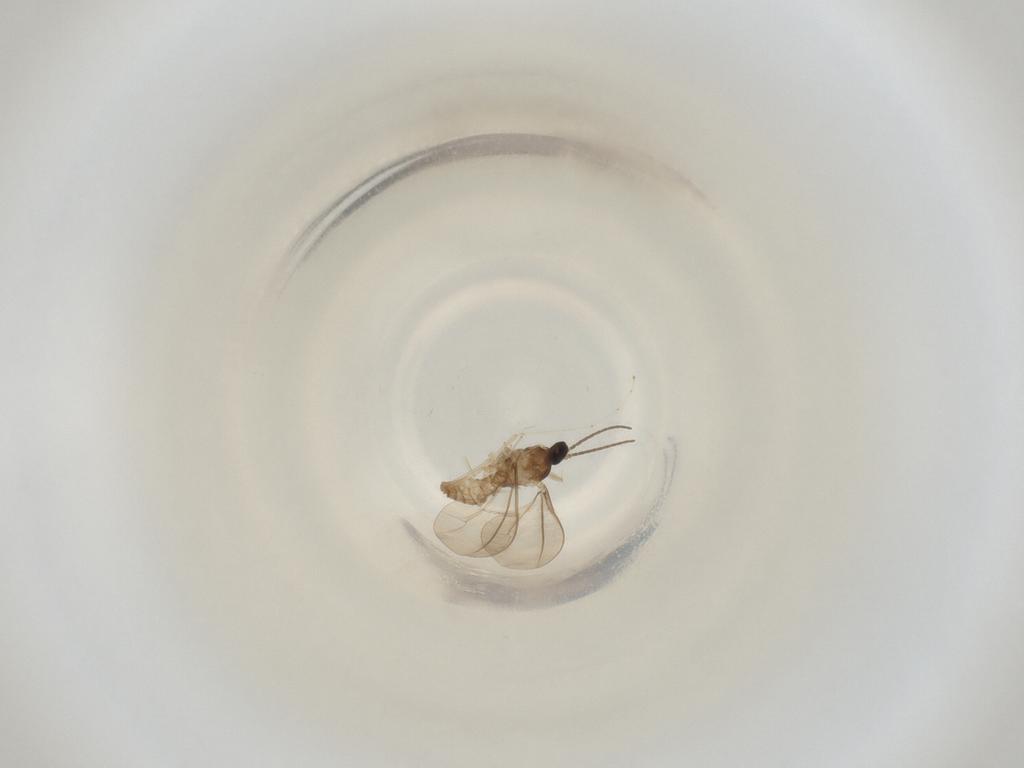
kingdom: Animalia
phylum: Arthropoda
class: Insecta
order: Diptera
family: Cecidomyiidae
